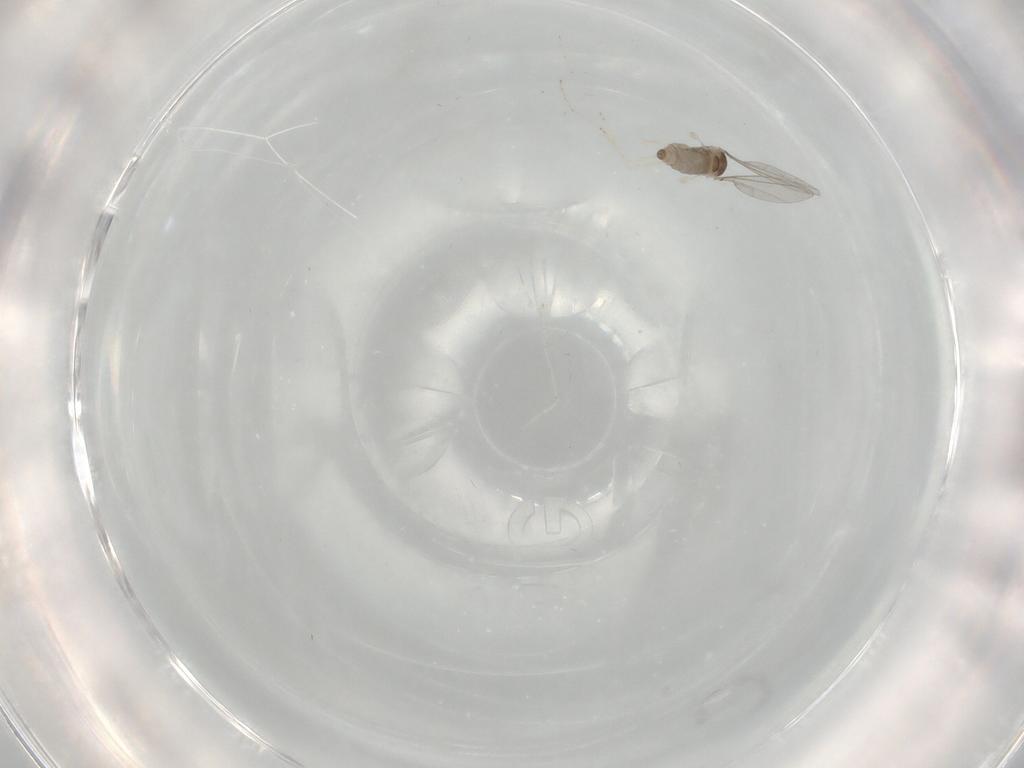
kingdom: Animalia
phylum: Arthropoda
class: Insecta
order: Diptera
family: Cecidomyiidae
